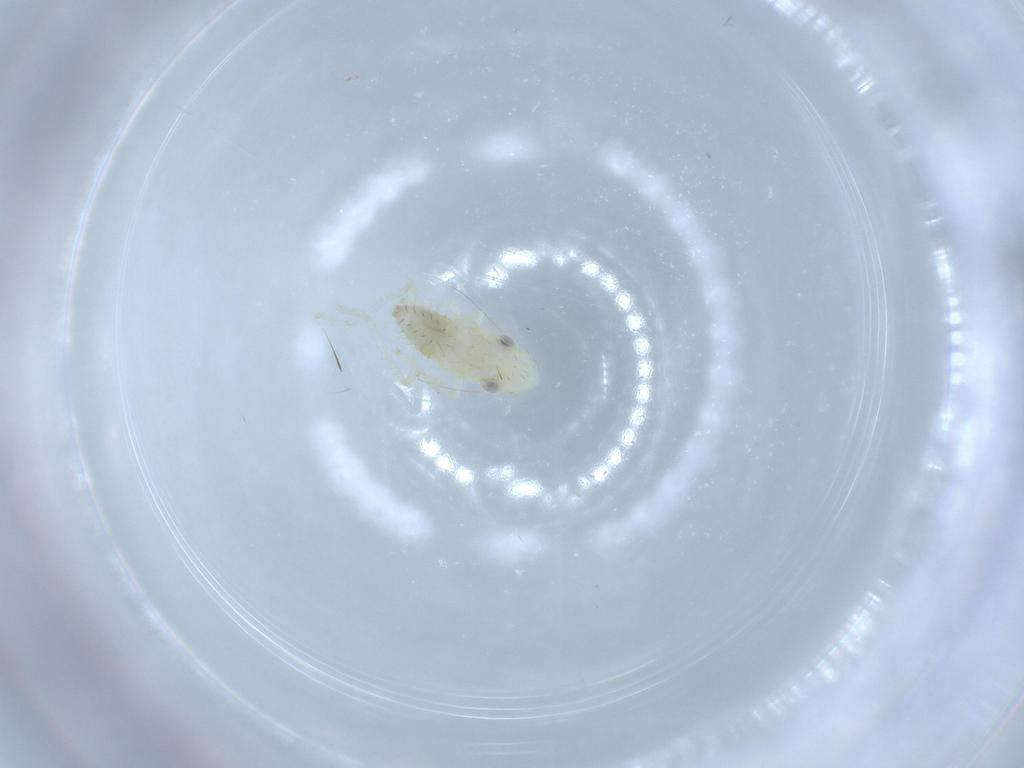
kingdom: Animalia
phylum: Arthropoda
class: Insecta
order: Hemiptera
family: Cicadellidae
